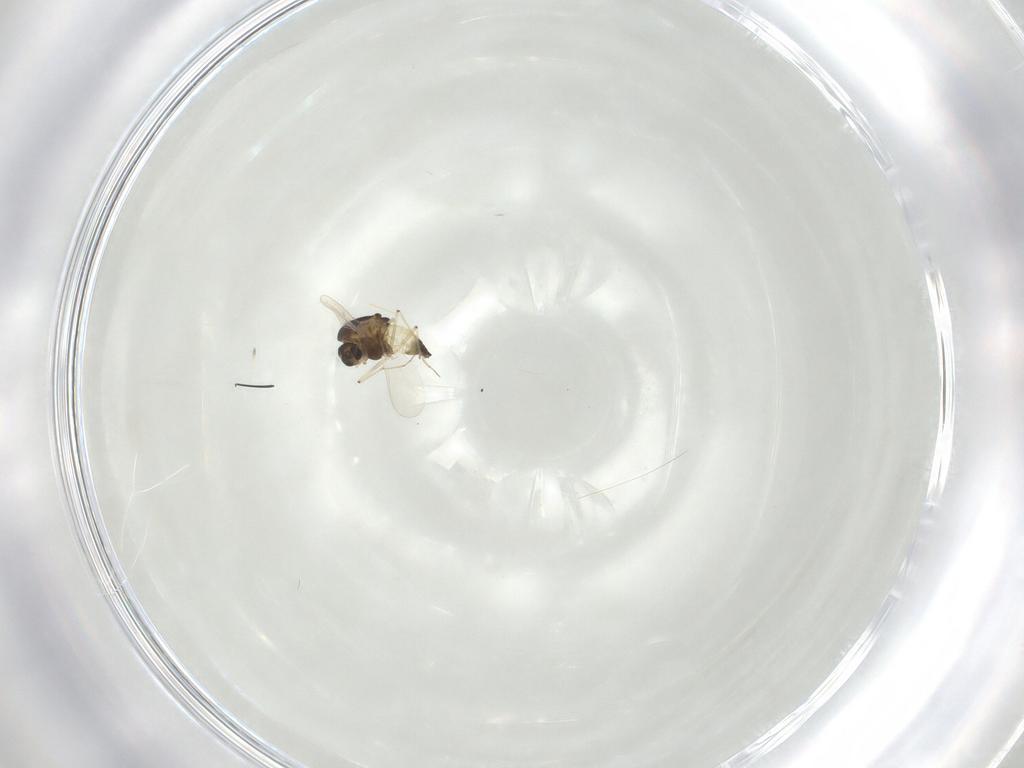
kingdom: Animalia
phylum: Arthropoda
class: Insecta
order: Diptera
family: Chironomidae
